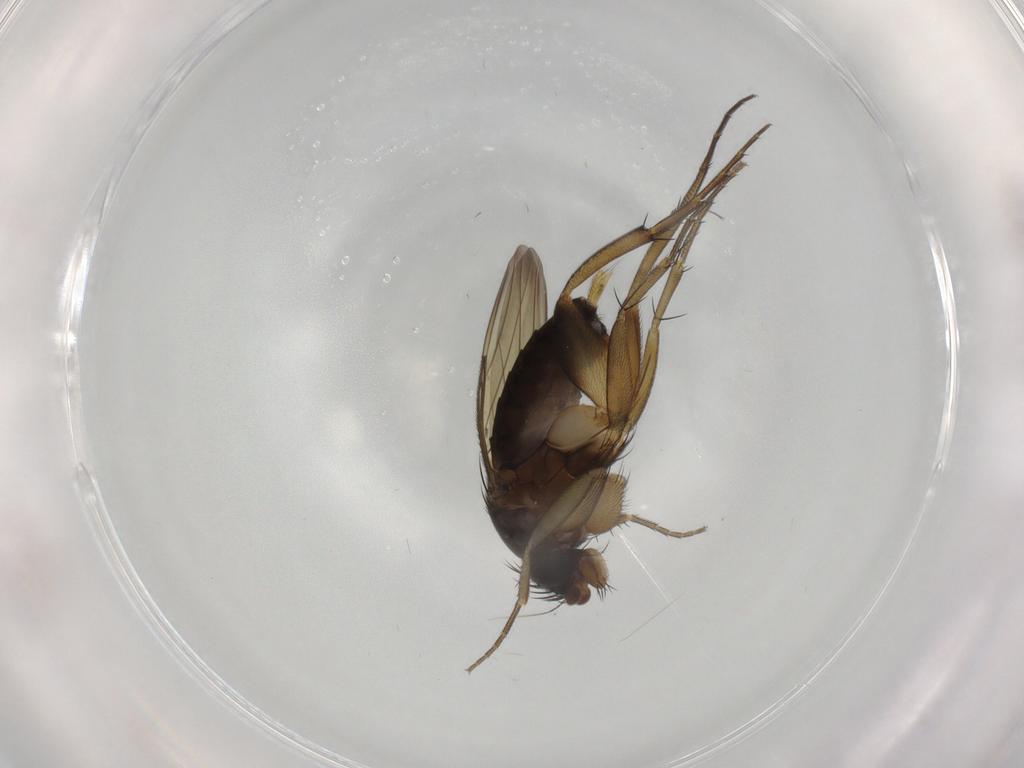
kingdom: Animalia
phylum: Arthropoda
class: Insecta
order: Diptera
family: Phoridae
